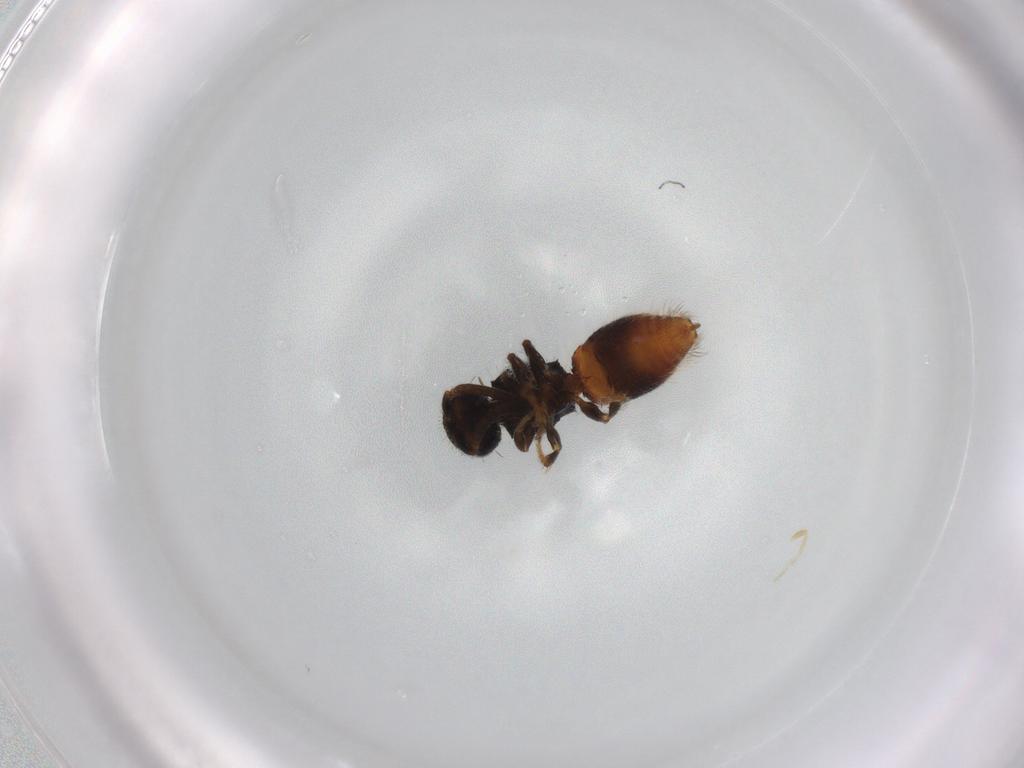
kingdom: Animalia
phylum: Arthropoda
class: Insecta
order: Hymenoptera
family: Braconidae
